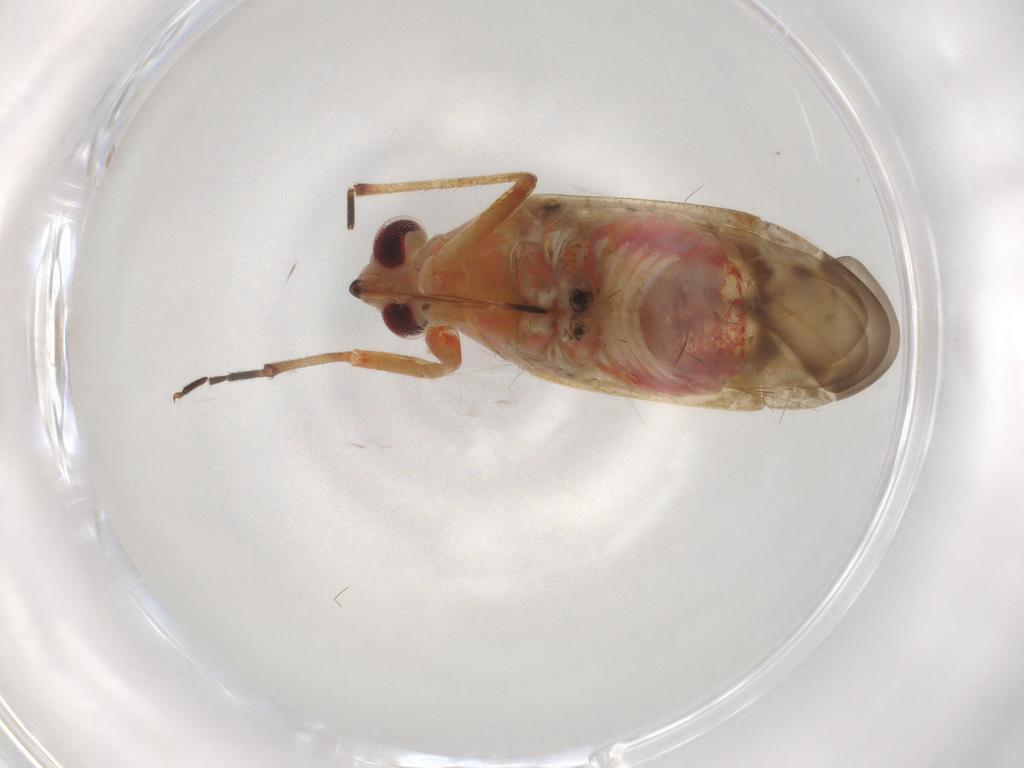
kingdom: Animalia
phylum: Arthropoda
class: Insecta
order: Hemiptera
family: Miridae
